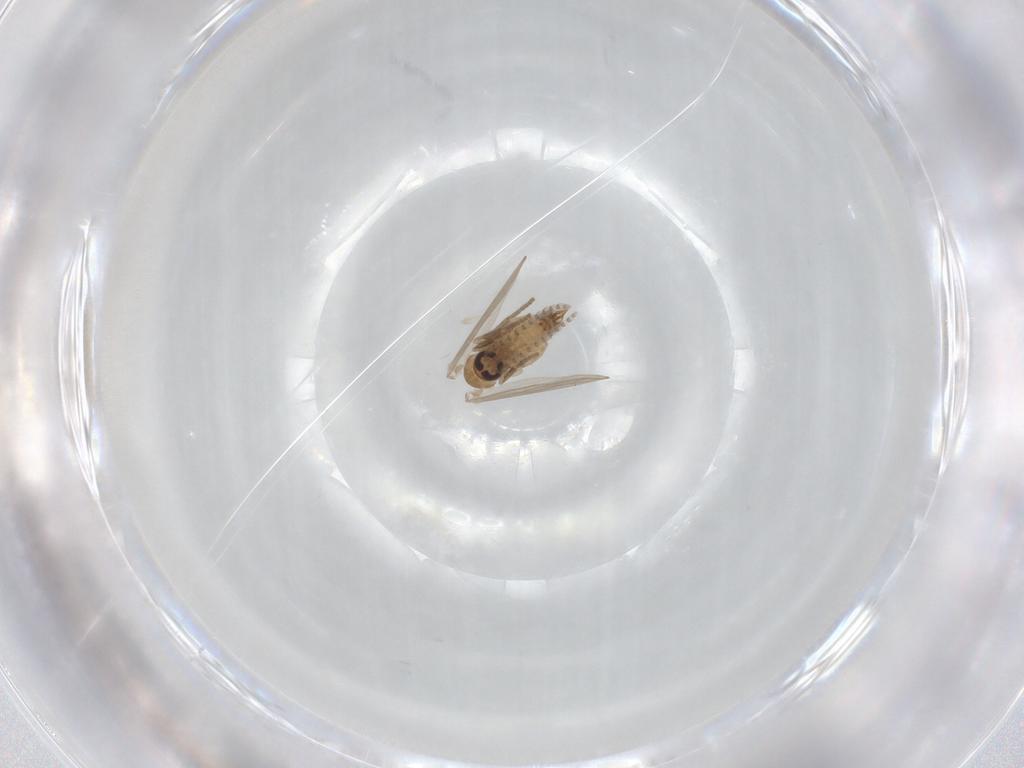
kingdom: Animalia
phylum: Arthropoda
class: Insecta
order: Diptera
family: Psychodidae
